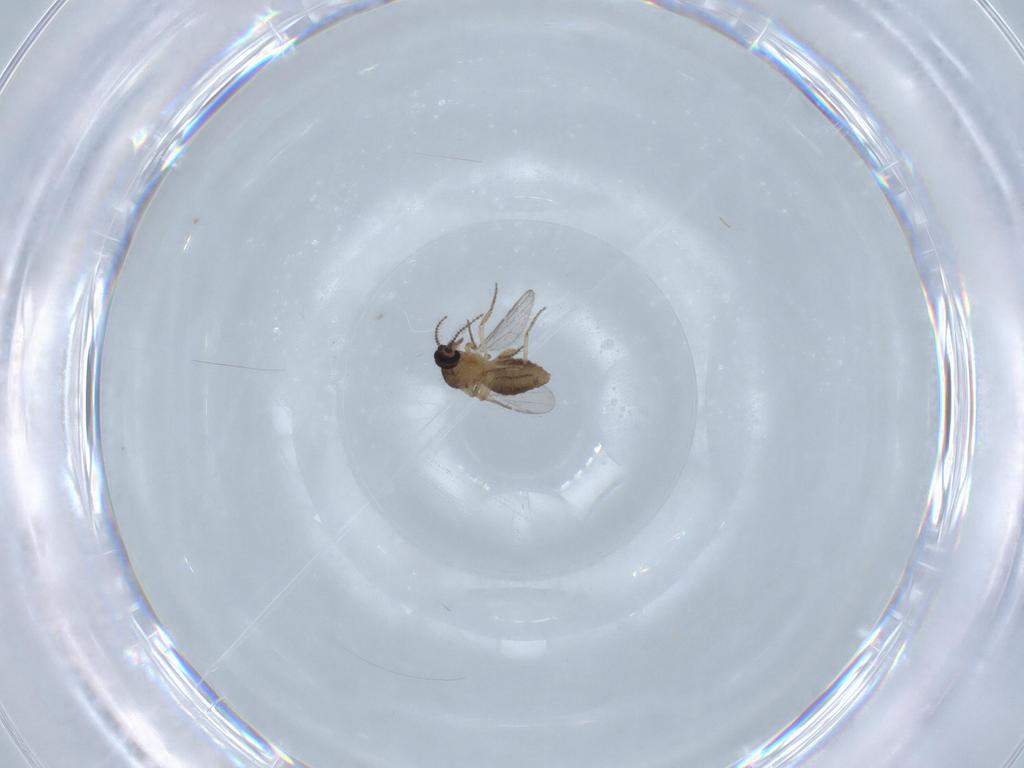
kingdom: Animalia
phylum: Arthropoda
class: Insecta
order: Diptera
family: Ceratopogonidae
